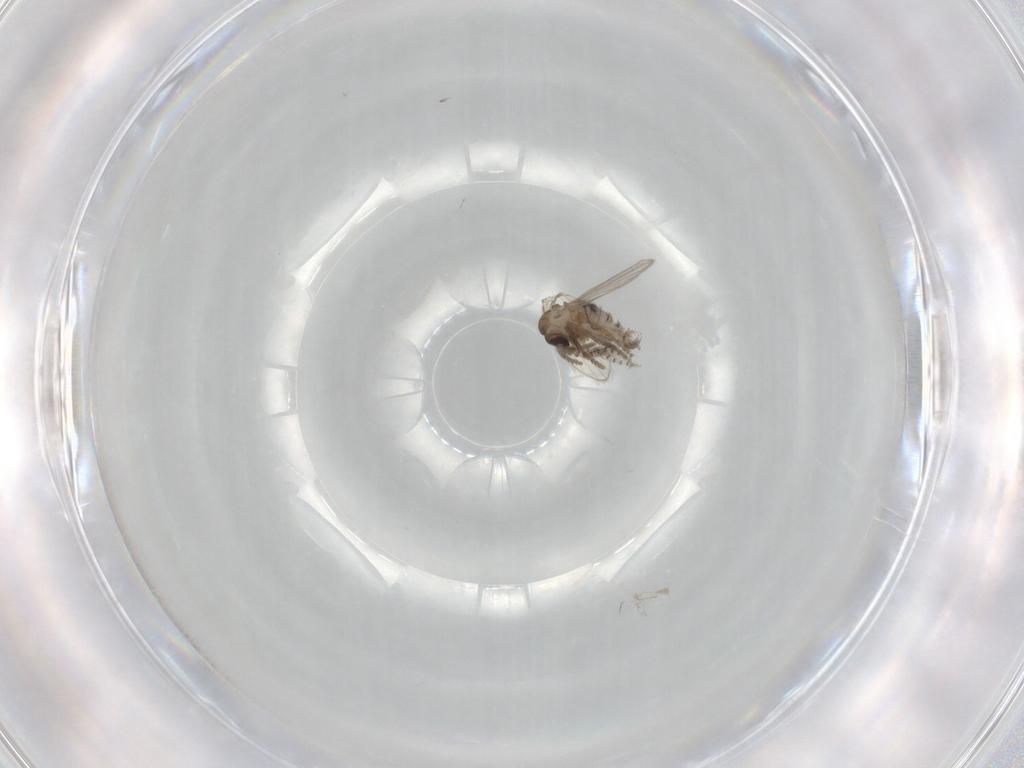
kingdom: Animalia
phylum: Arthropoda
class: Insecta
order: Diptera
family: Psychodidae
